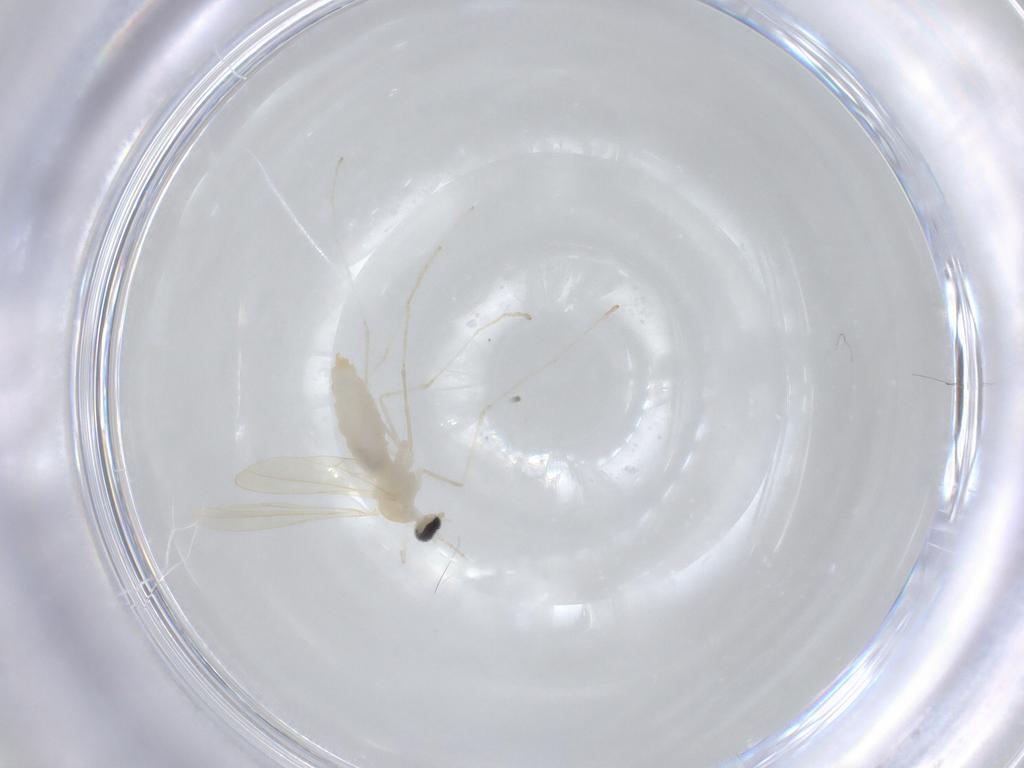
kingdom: Animalia
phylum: Arthropoda
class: Insecta
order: Diptera
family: Cecidomyiidae
